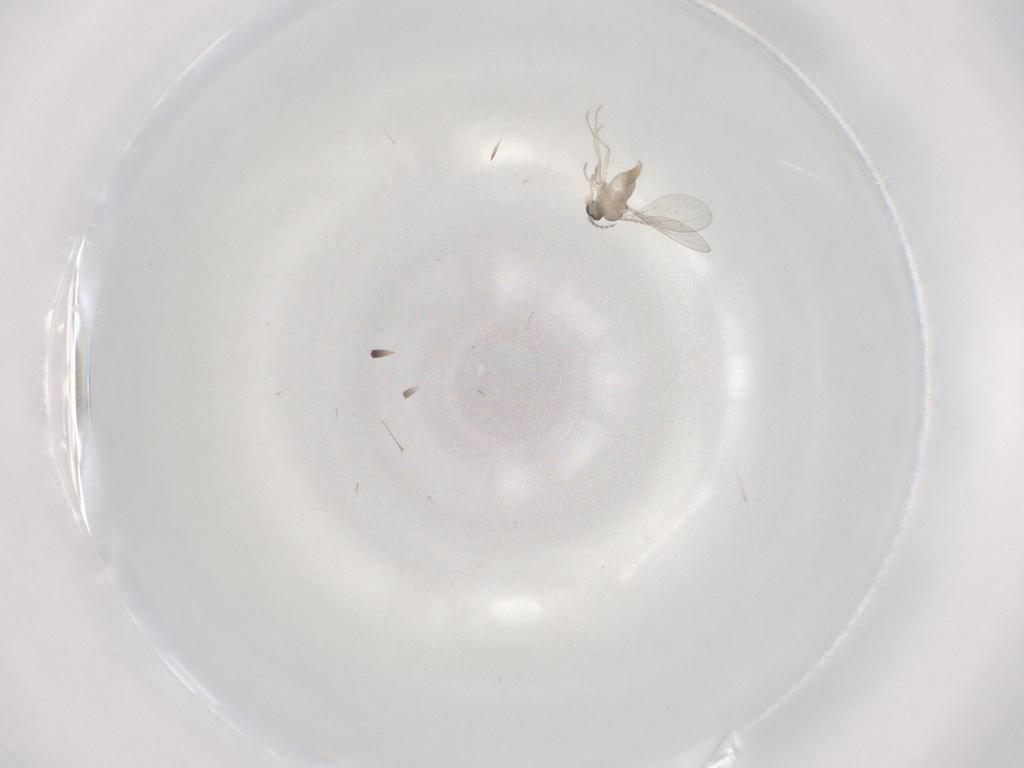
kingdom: Animalia
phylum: Arthropoda
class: Insecta
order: Diptera
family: Cecidomyiidae
